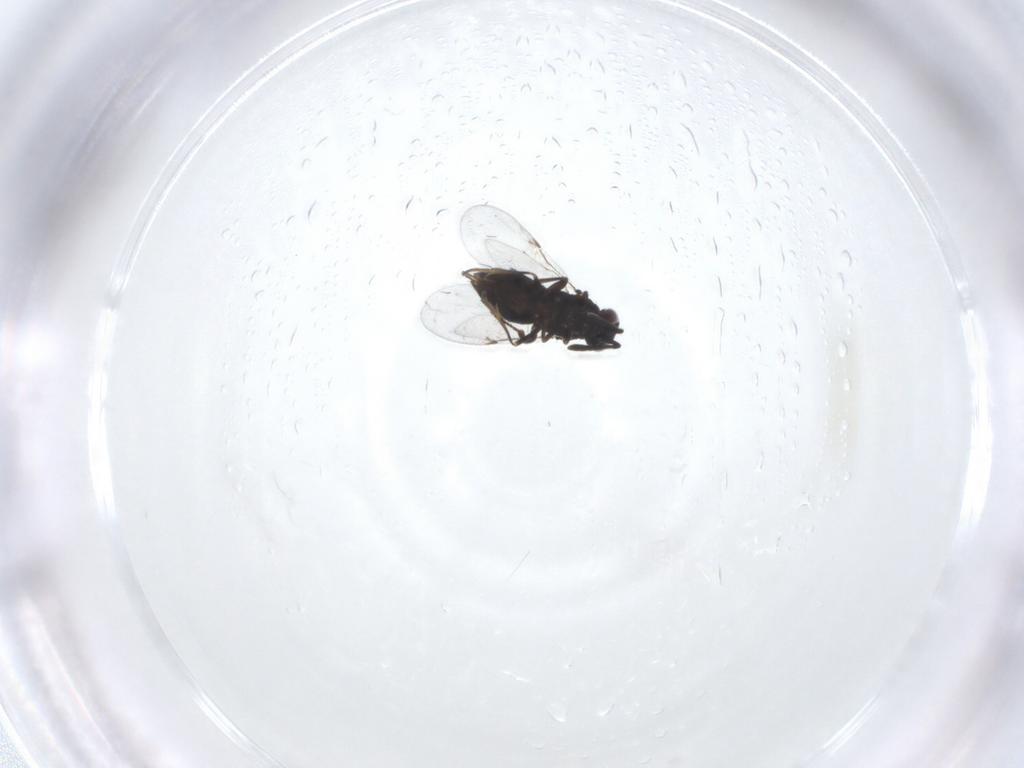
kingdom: Animalia
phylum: Arthropoda
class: Insecta
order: Hymenoptera
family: Encyrtidae
